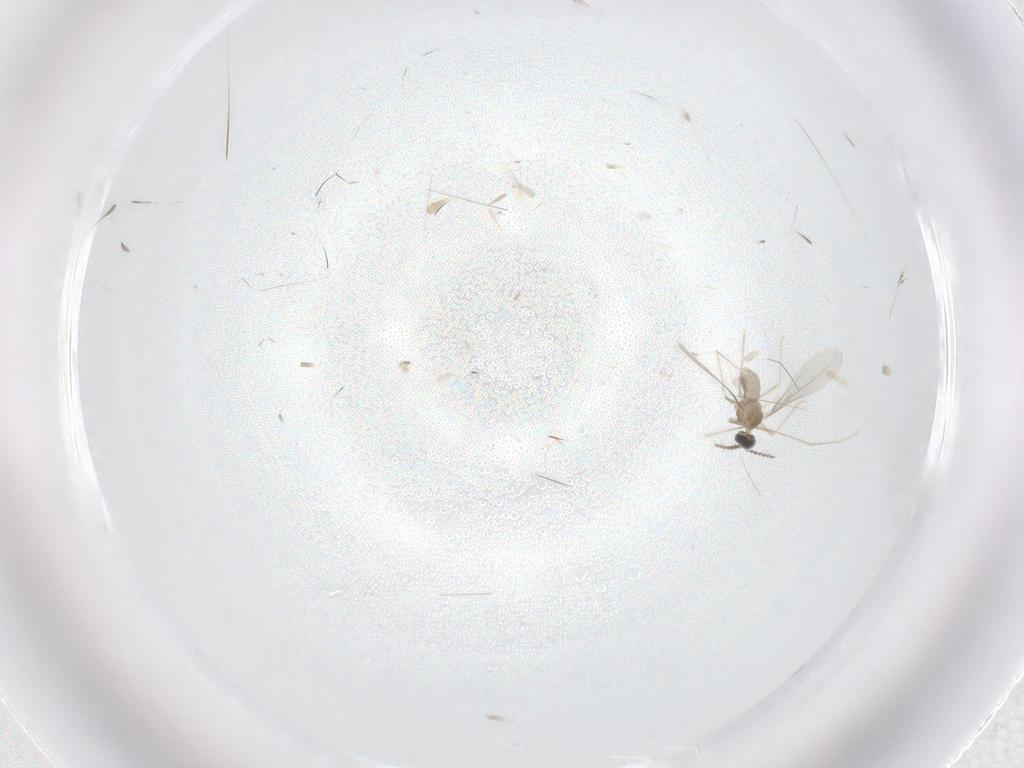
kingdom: Animalia
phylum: Arthropoda
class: Insecta
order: Diptera
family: Cecidomyiidae
